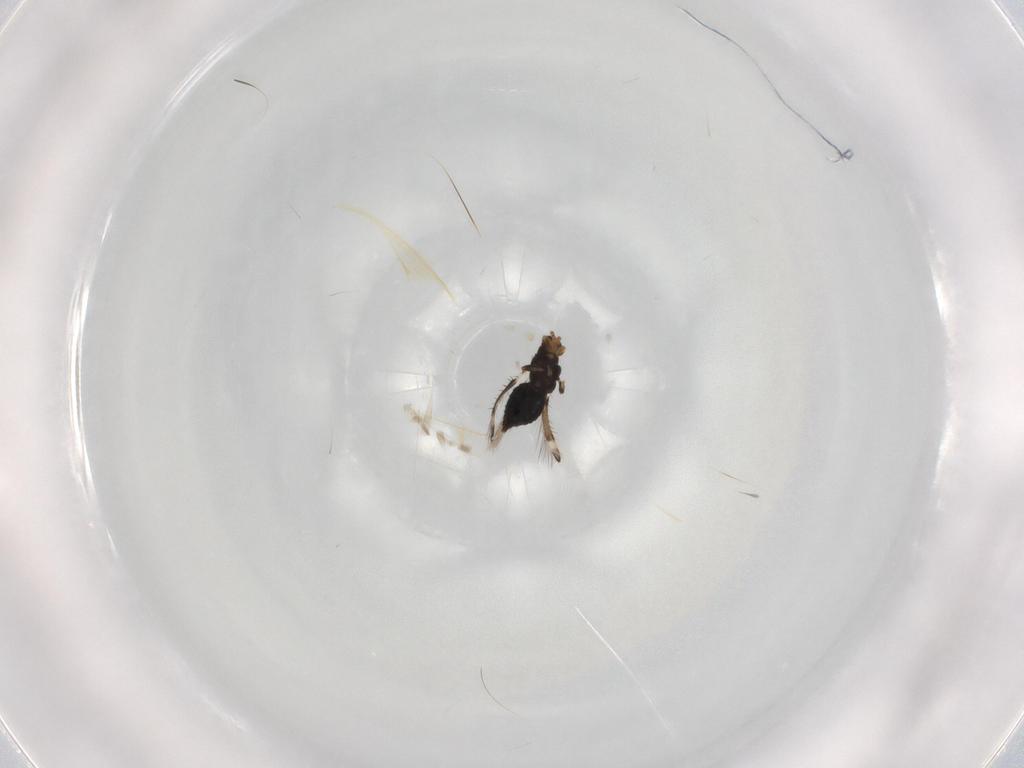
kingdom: Animalia
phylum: Arthropoda
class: Insecta
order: Thysanoptera
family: Thripidae
